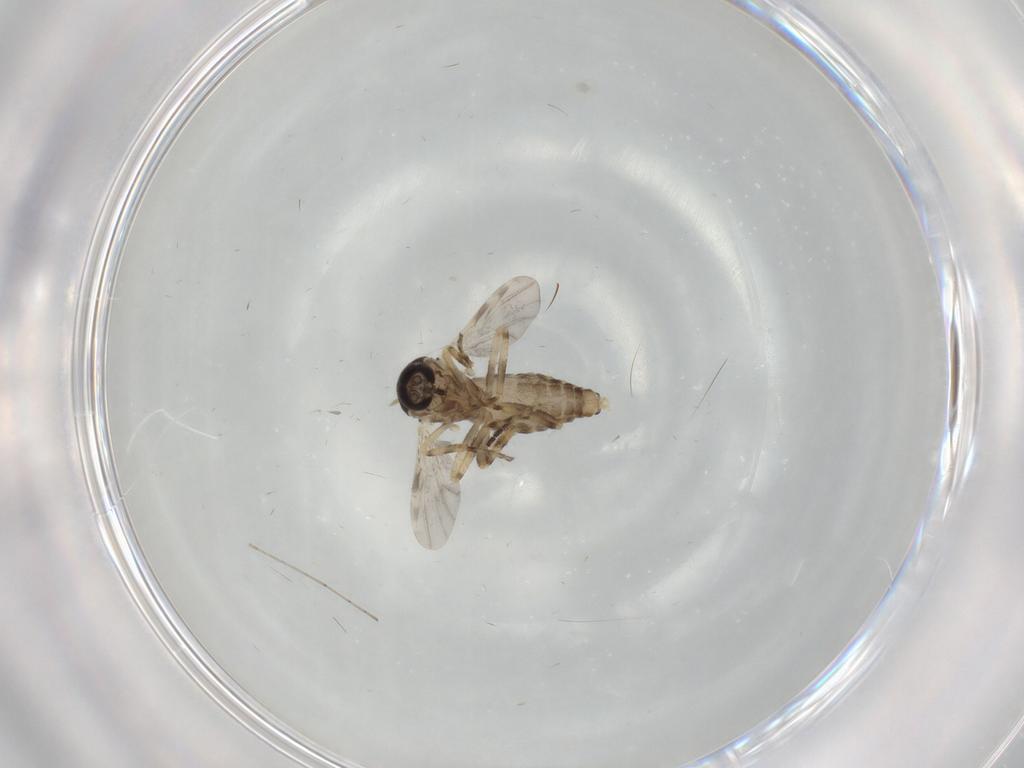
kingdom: Animalia
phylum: Arthropoda
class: Insecta
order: Diptera
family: Ceratopogonidae
